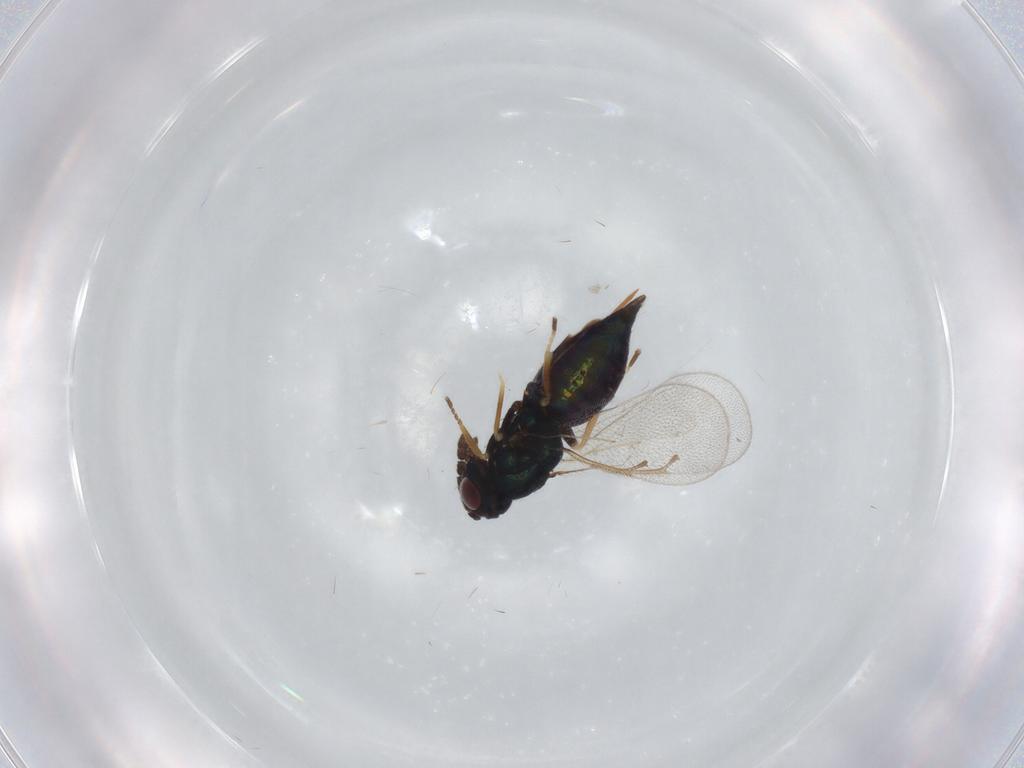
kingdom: Animalia
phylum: Arthropoda
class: Insecta
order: Hymenoptera
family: Eulophidae
